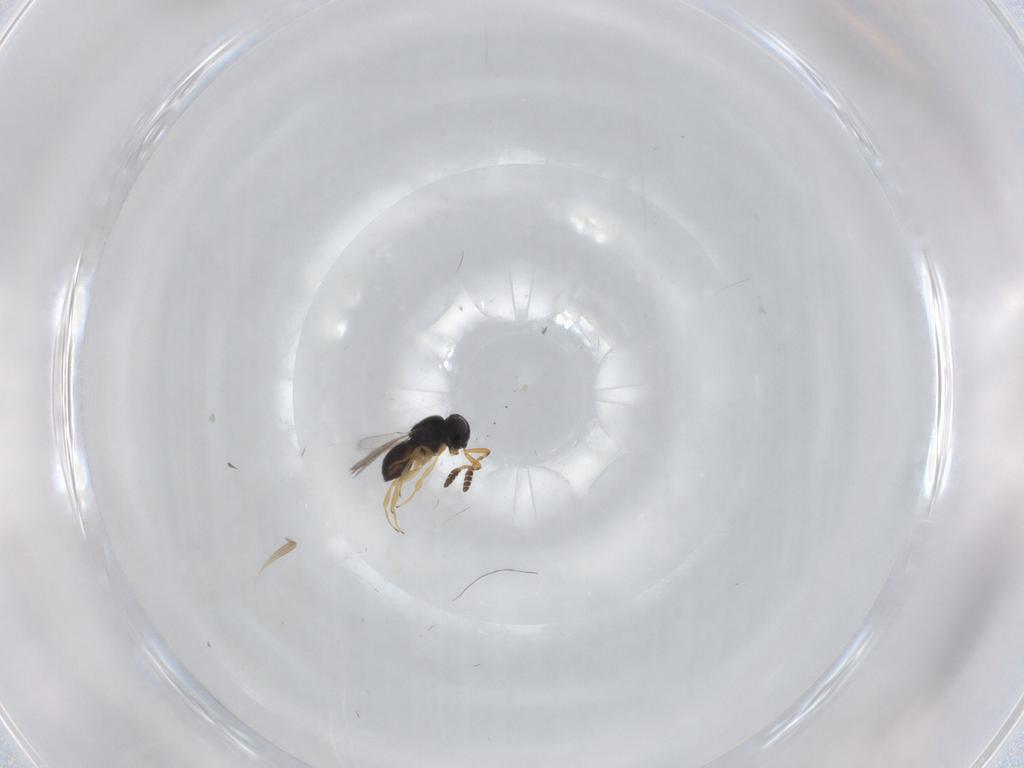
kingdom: Animalia
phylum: Arthropoda
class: Insecta
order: Hymenoptera
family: Scelionidae
